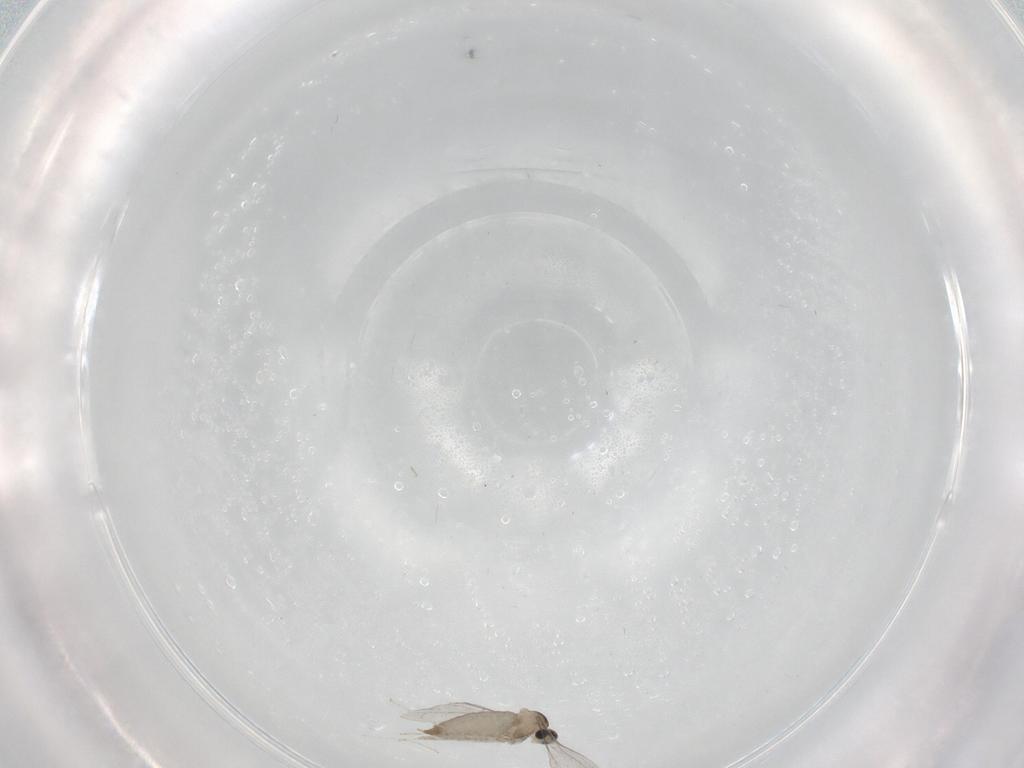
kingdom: Animalia
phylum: Arthropoda
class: Insecta
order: Diptera
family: Cecidomyiidae
